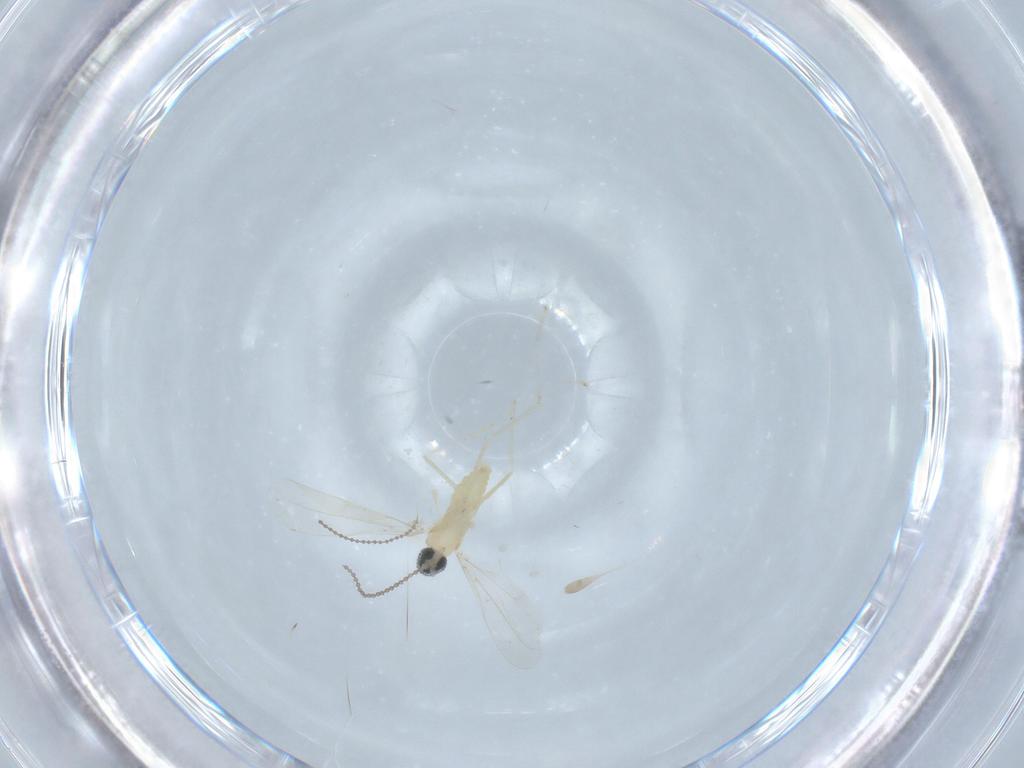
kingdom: Animalia
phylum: Arthropoda
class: Insecta
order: Diptera
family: Cecidomyiidae
